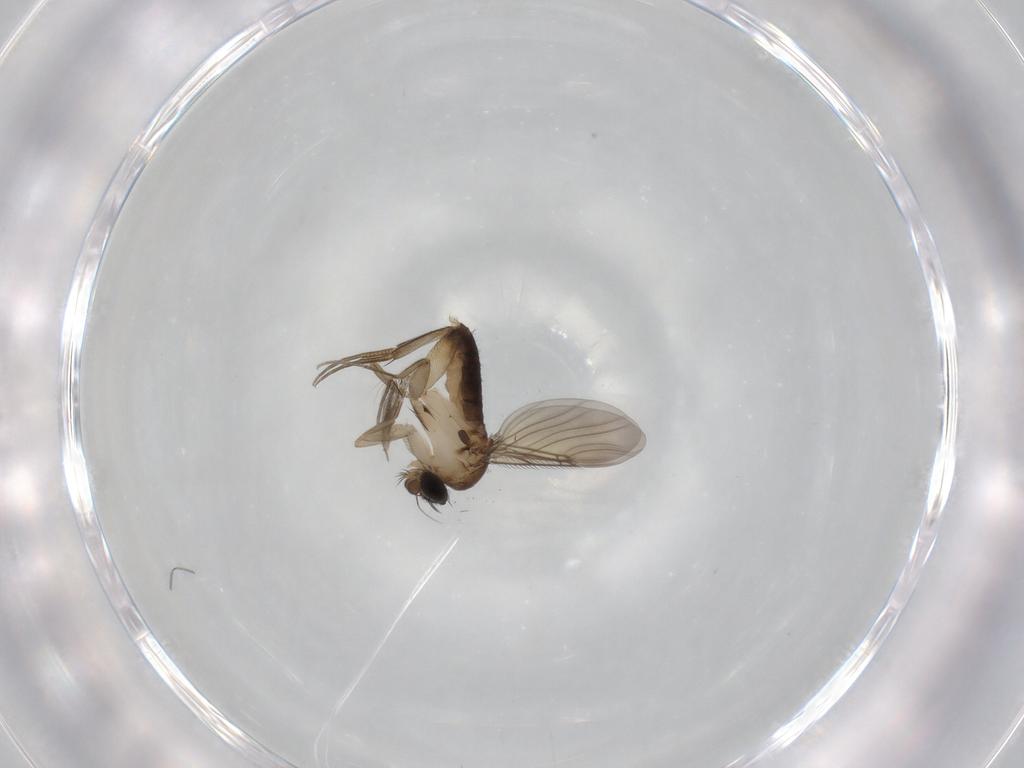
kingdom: Animalia
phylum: Arthropoda
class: Insecta
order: Diptera
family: Phoridae
